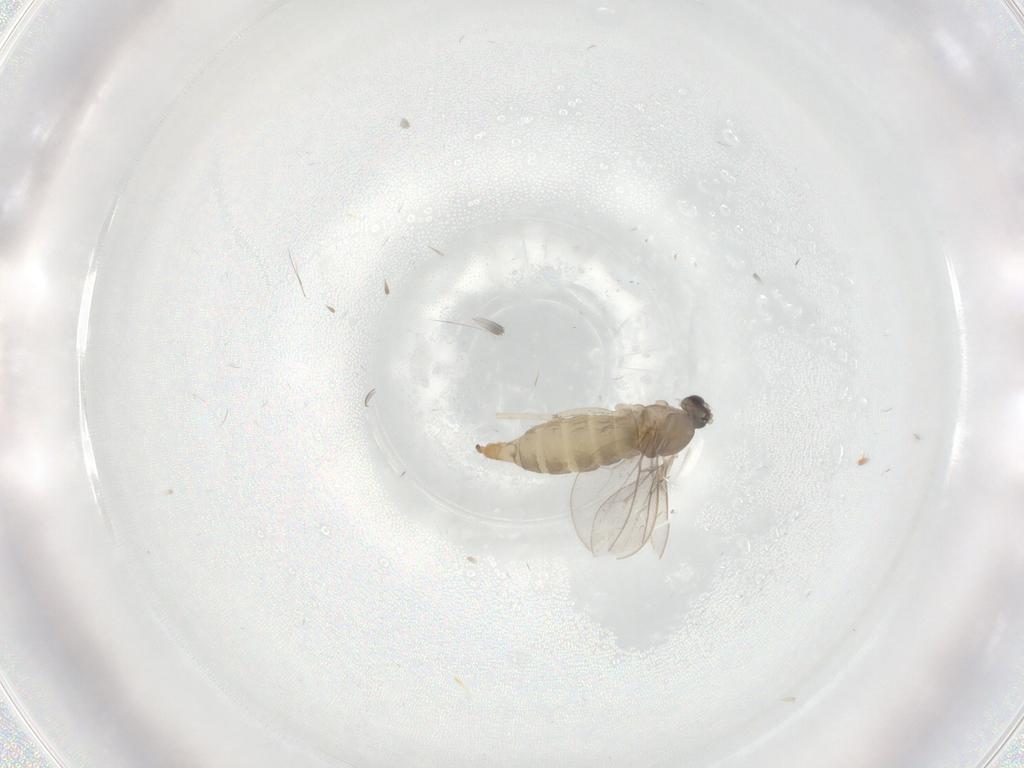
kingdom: Animalia
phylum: Arthropoda
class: Insecta
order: Diptera
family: Cecidomyiidae
